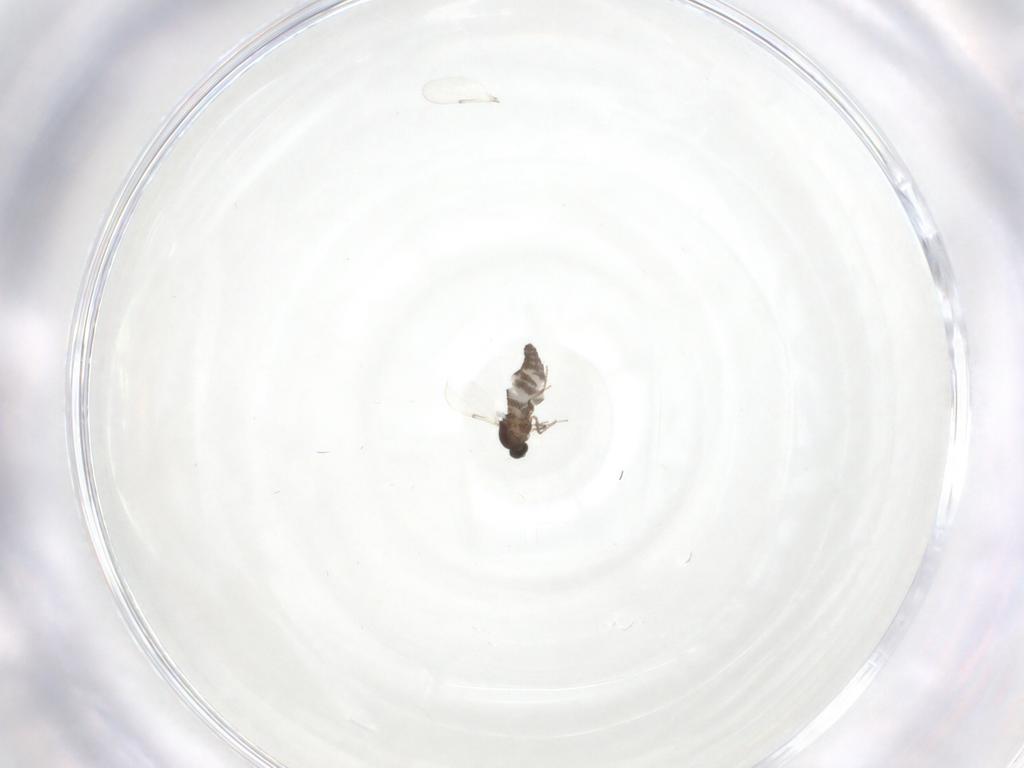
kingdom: Animalia
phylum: Arthropoda
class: Insecta
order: Diptera
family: Ceratopogonidae
